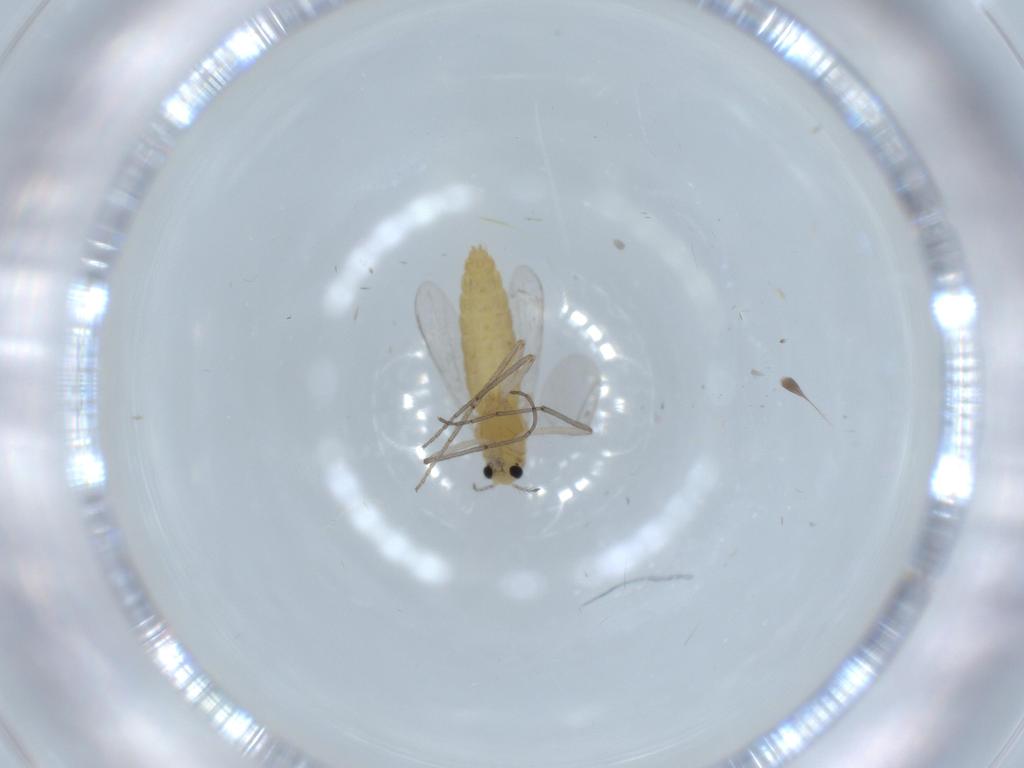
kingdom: Animalia
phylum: Arthropoda
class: Insecta
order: Diptera
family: Chironomidae
